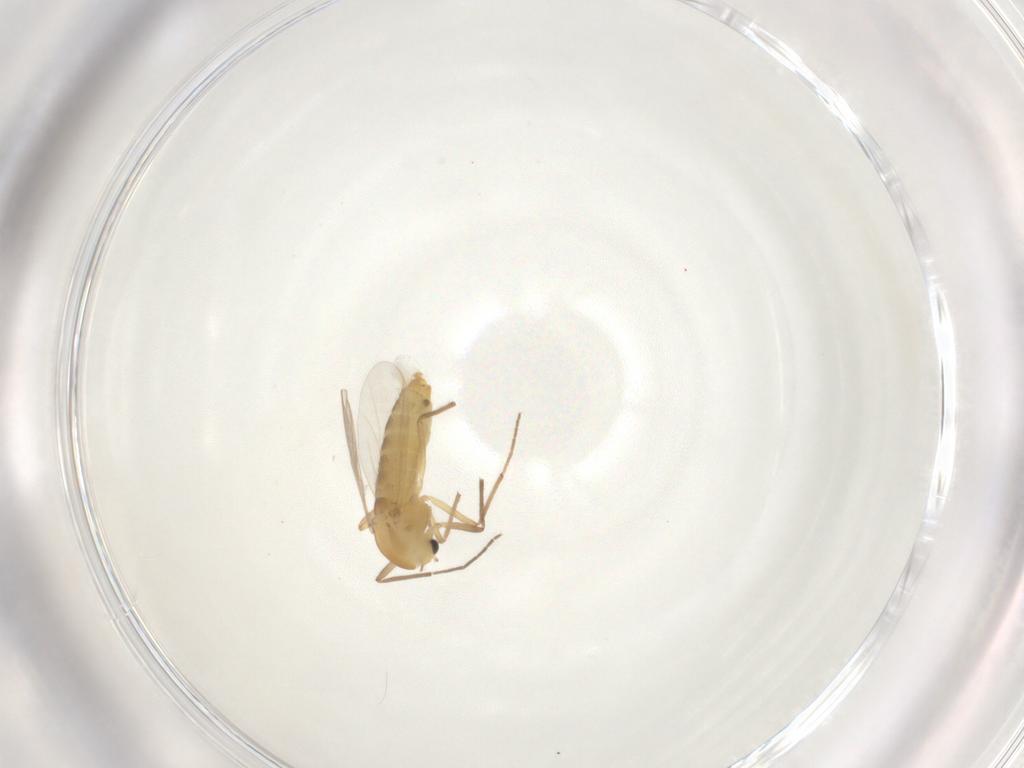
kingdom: Animalia
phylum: Arthropoda
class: Insecta
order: Diptera
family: Chironomidae
